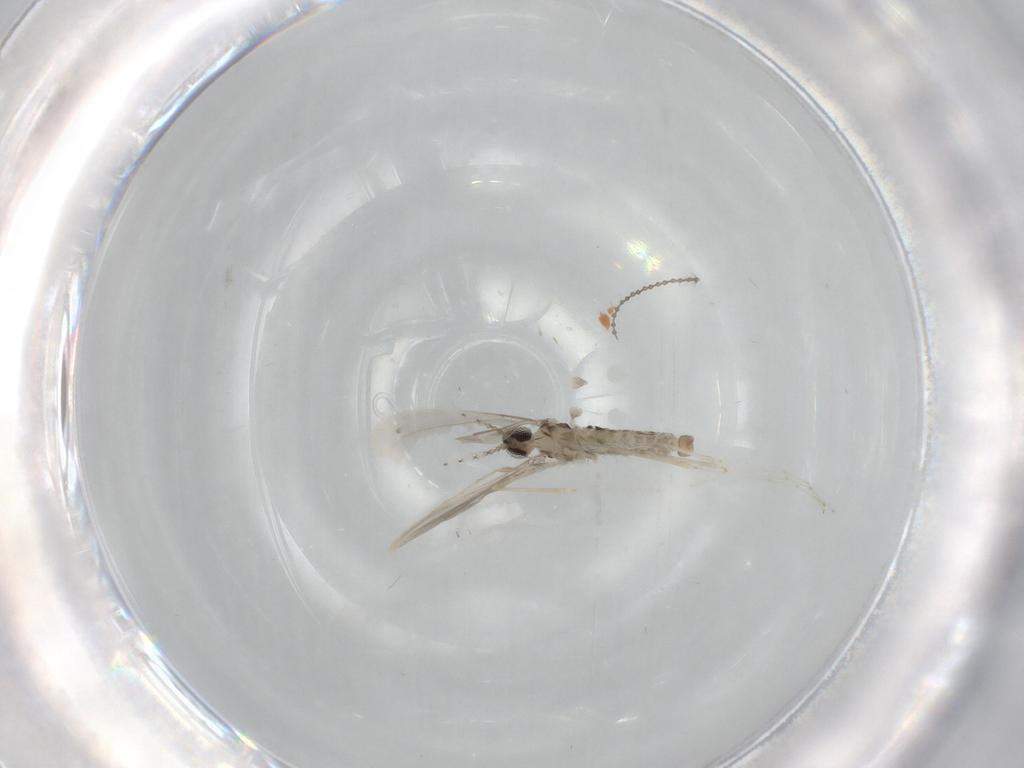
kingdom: Animalia
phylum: Arthropoda
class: Insecta
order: Diptera
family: Cecidomyiidae
